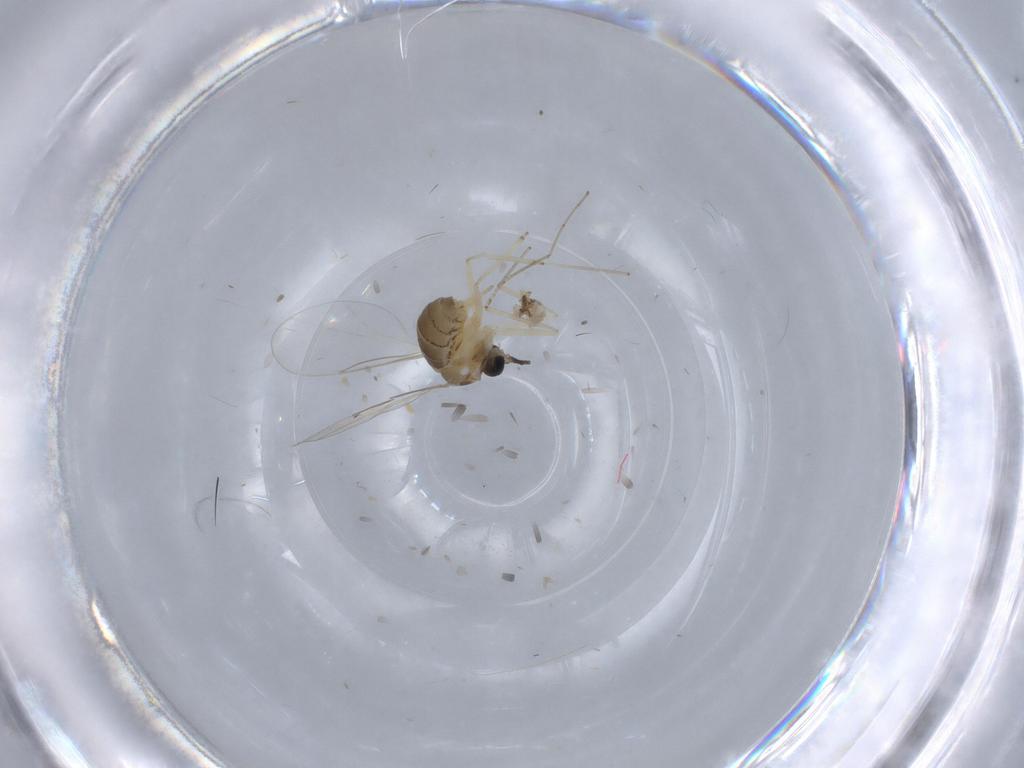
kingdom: Animalia
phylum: Arthropoda
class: Insecta
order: Diptera
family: Cecidomyiidae
